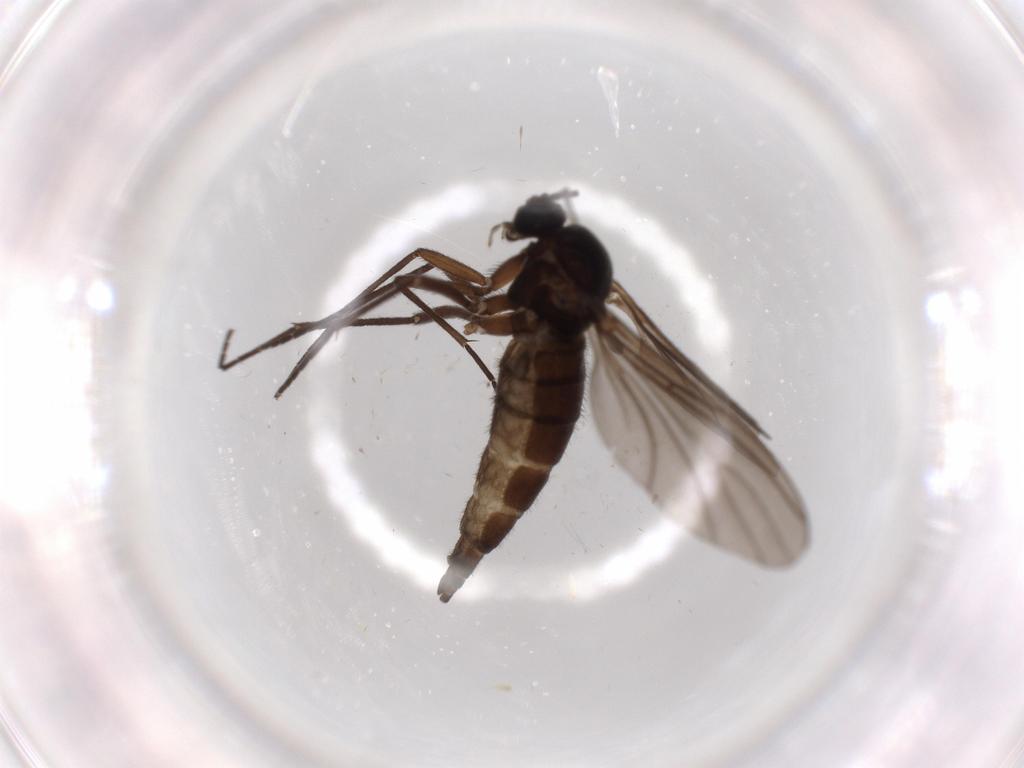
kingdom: Animalia
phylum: Arthropoda
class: Insecta
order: Diptera
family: Sciaridae
